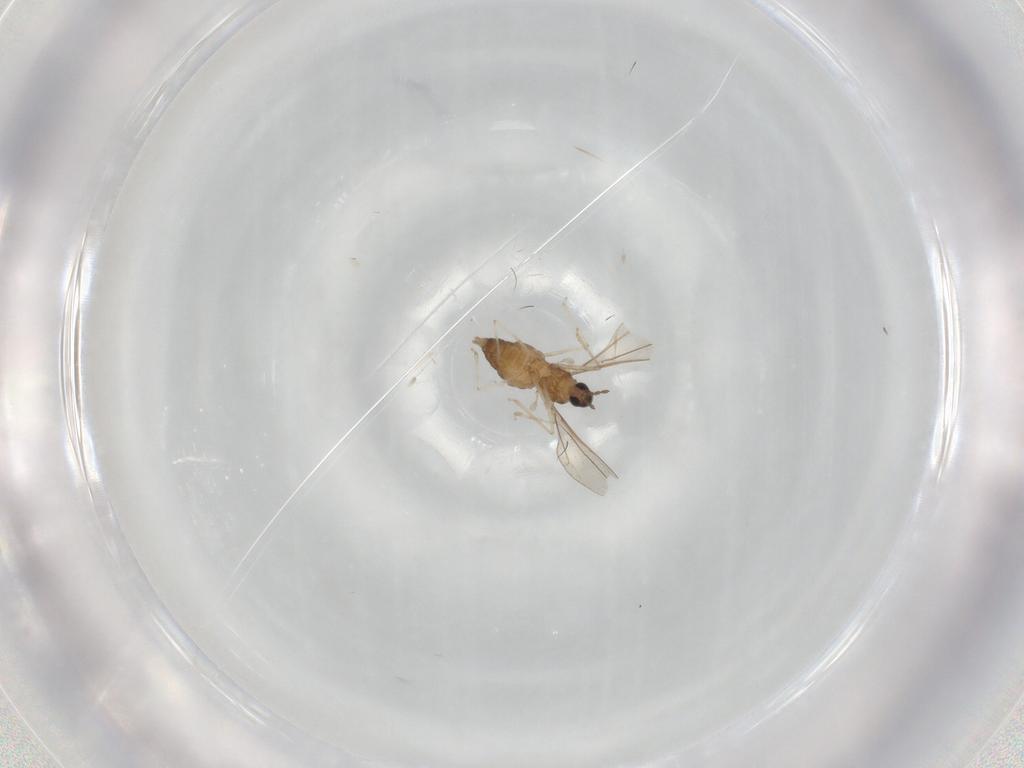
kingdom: Animalia
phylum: Arthropoda
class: Insecta
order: Diptera
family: Cecidomyiidae
